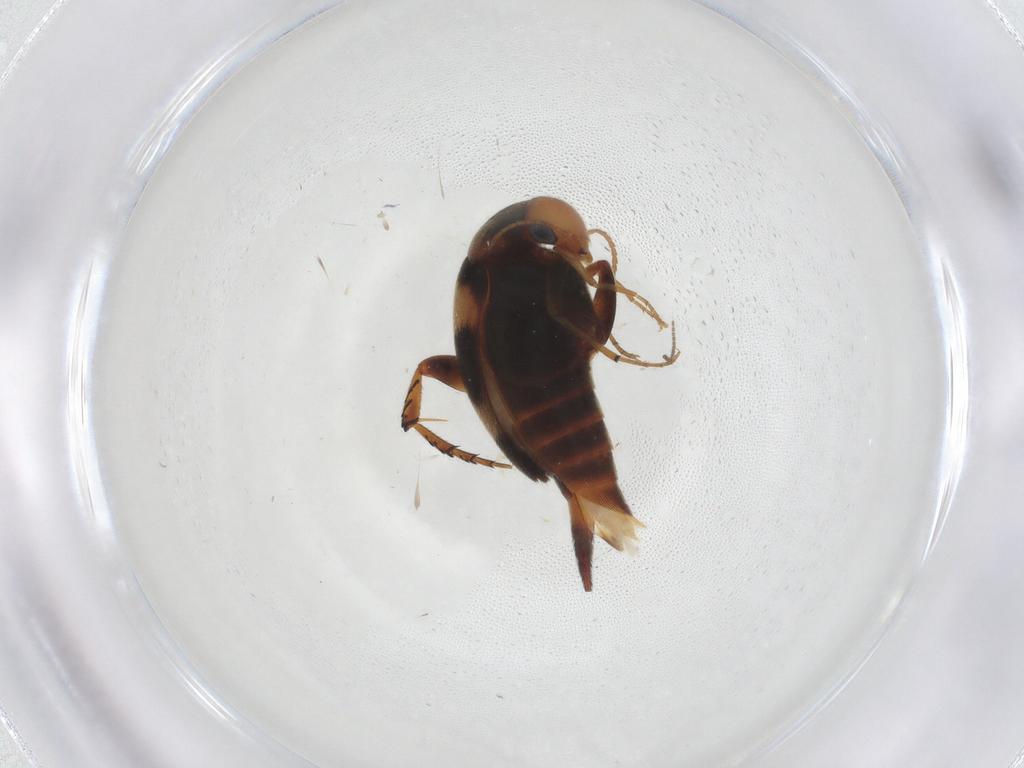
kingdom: Animalia
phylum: Arthropoda
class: Insecta
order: Coleoptera
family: Mordellidae
